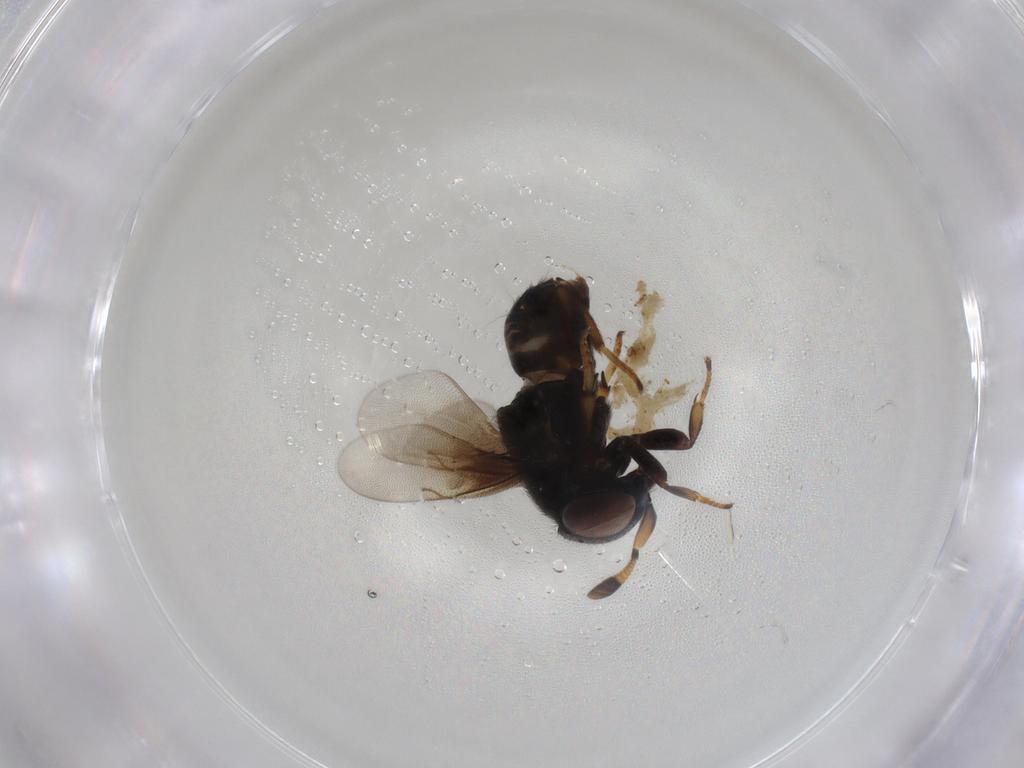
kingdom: Animalia
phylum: Arthropoda
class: Insecta
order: Hymenoptera
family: Encyrtidae
